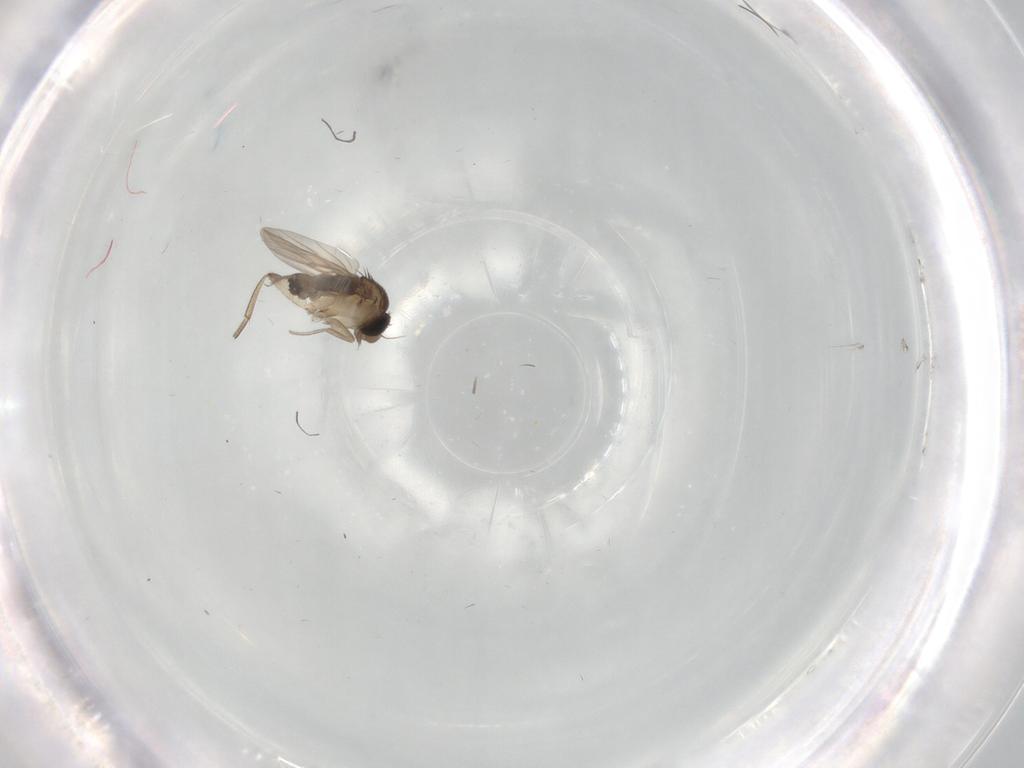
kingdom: Animalia
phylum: Arthropoda
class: Insecta
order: Diptera
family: Phoridae
